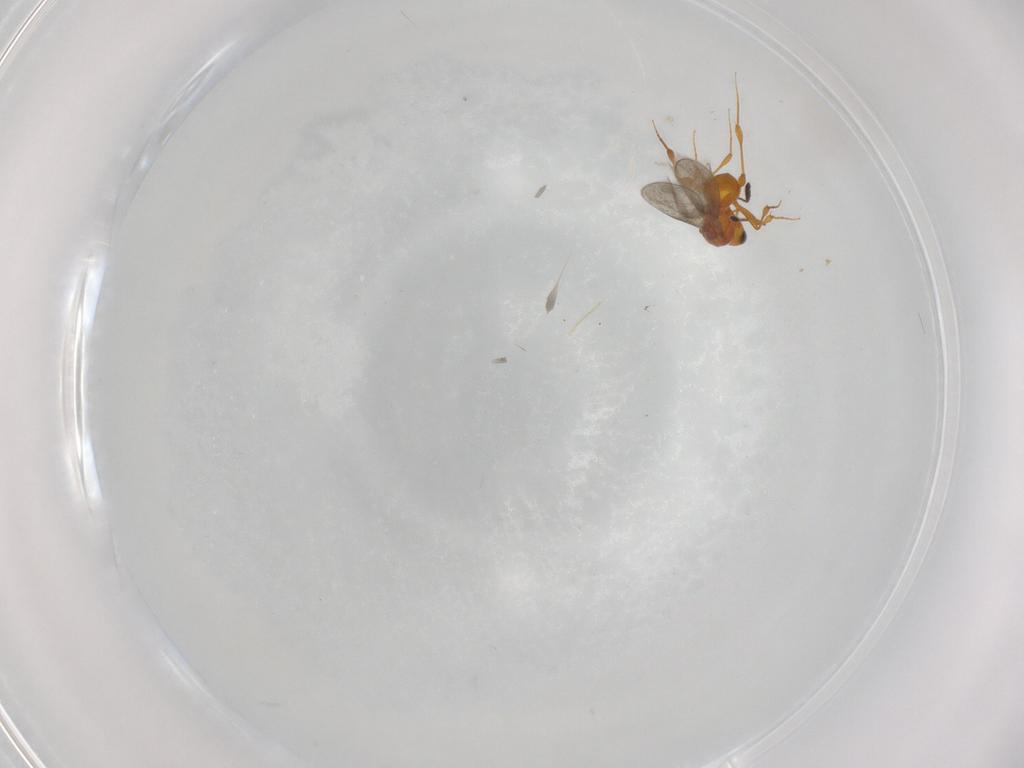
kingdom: Animalia
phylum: Arthropoda
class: Insecta
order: Hymenoptera
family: Platygastridae
